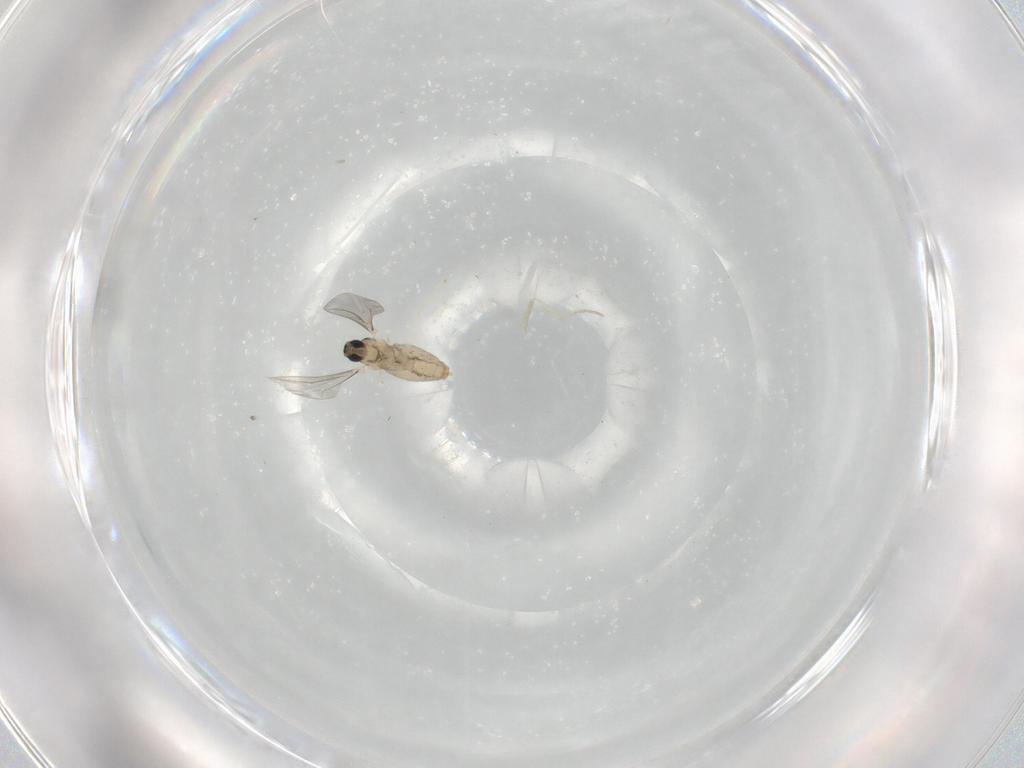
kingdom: Animalia
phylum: Arthropoda
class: Insecta
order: Diptera
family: Cecidomyiidae
